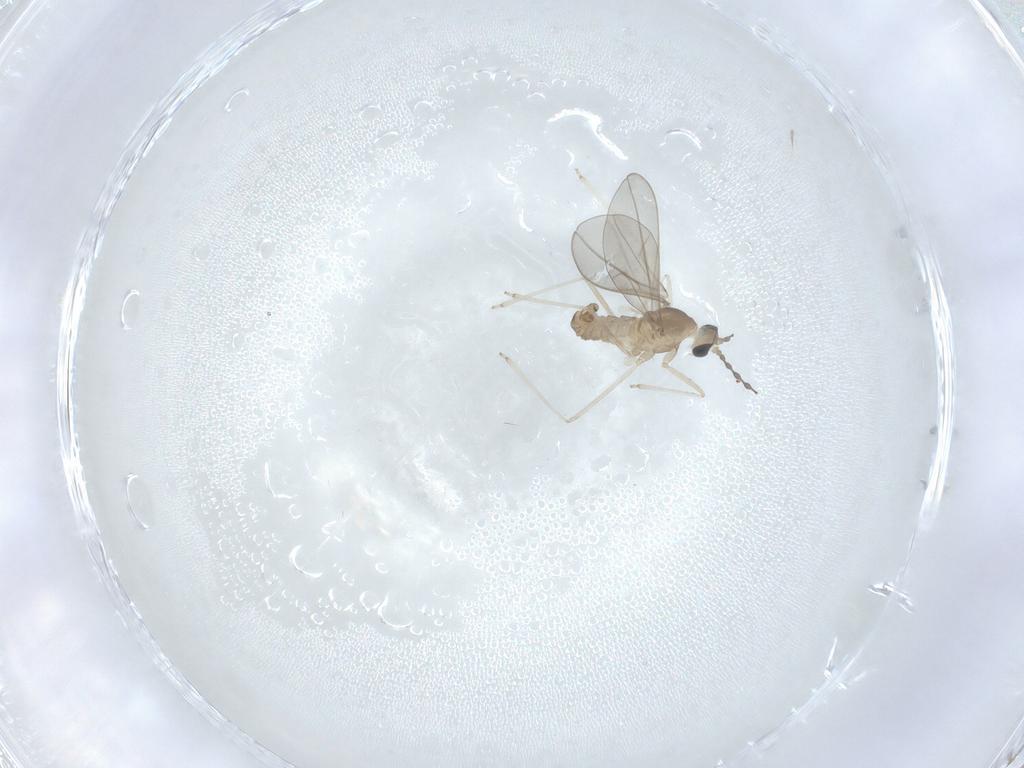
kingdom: Animalia
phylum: Arthropoda
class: Insecta
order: Diptera
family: Cecidomyiidae
